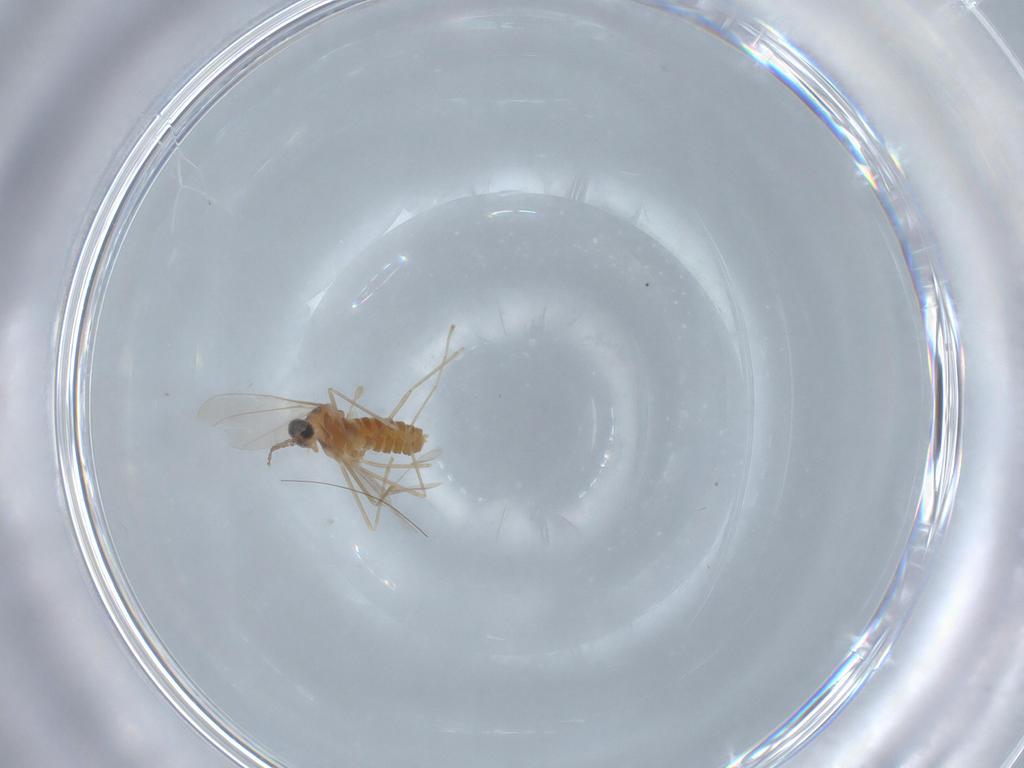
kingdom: Animalia
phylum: Arthropoda
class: Insecta
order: Diptera
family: Cecidomyiidae
